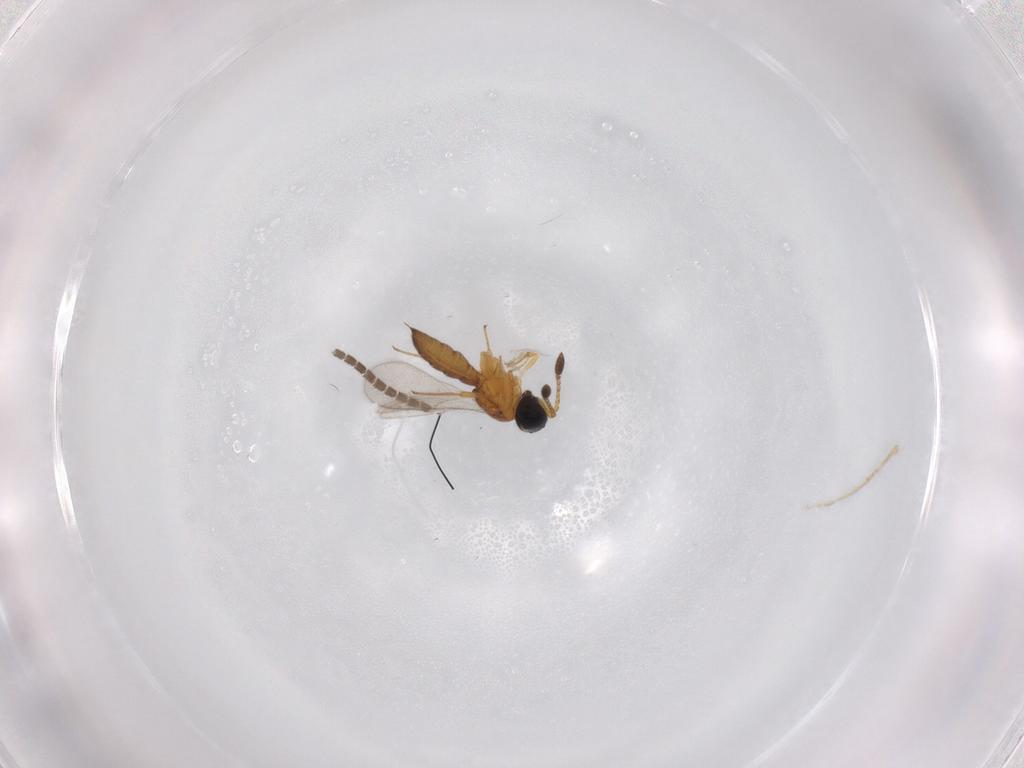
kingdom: Animalia
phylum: Arthropoda
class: Insecta
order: Hymenoptera
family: Scelionidae
